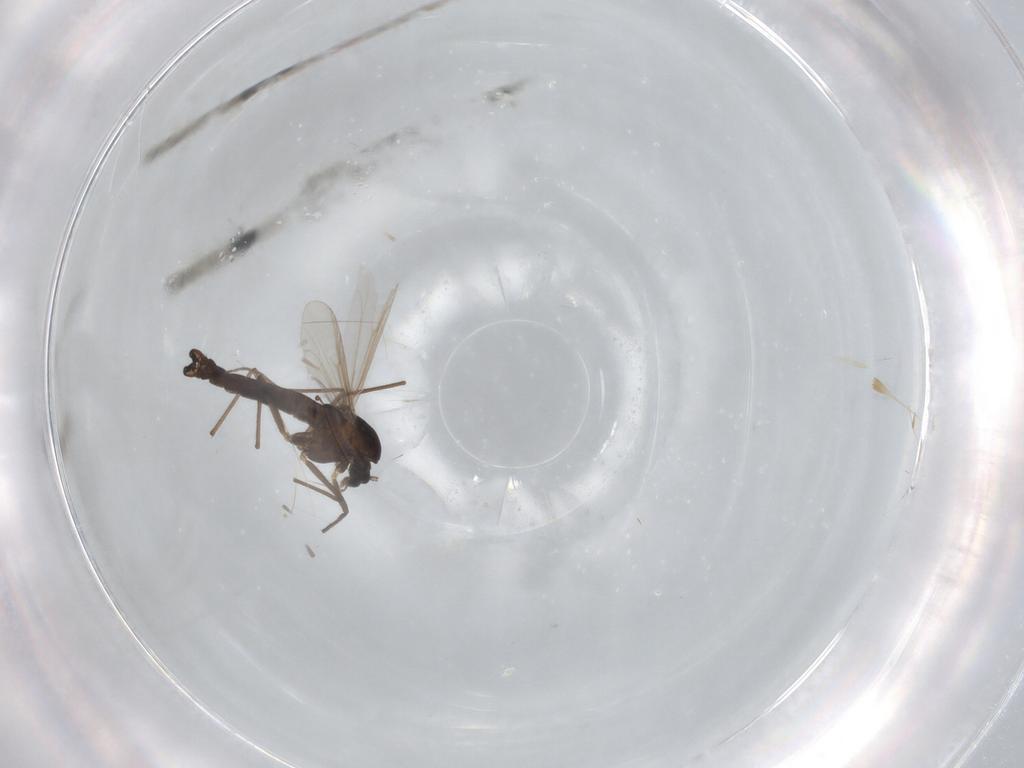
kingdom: Animalia
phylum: Arthropoda
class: Insecta
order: Diptera
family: Chironomidae
